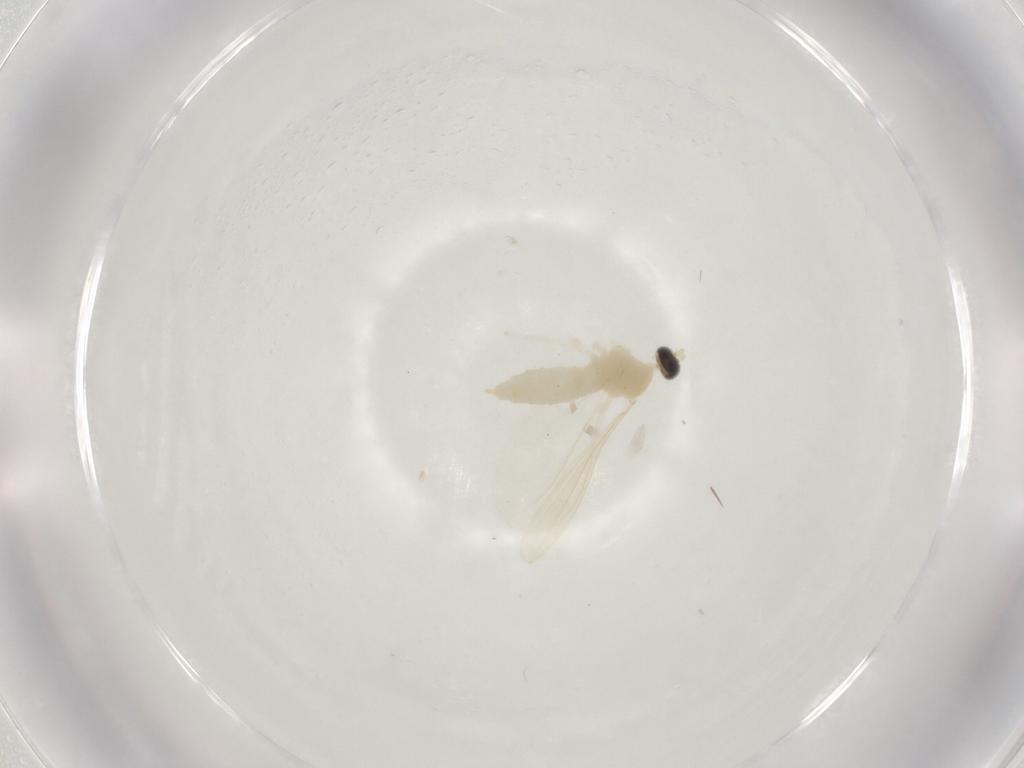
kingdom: Animalia
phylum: Arthropoda
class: Insecta
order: Diptera
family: Cecidomyiidae
